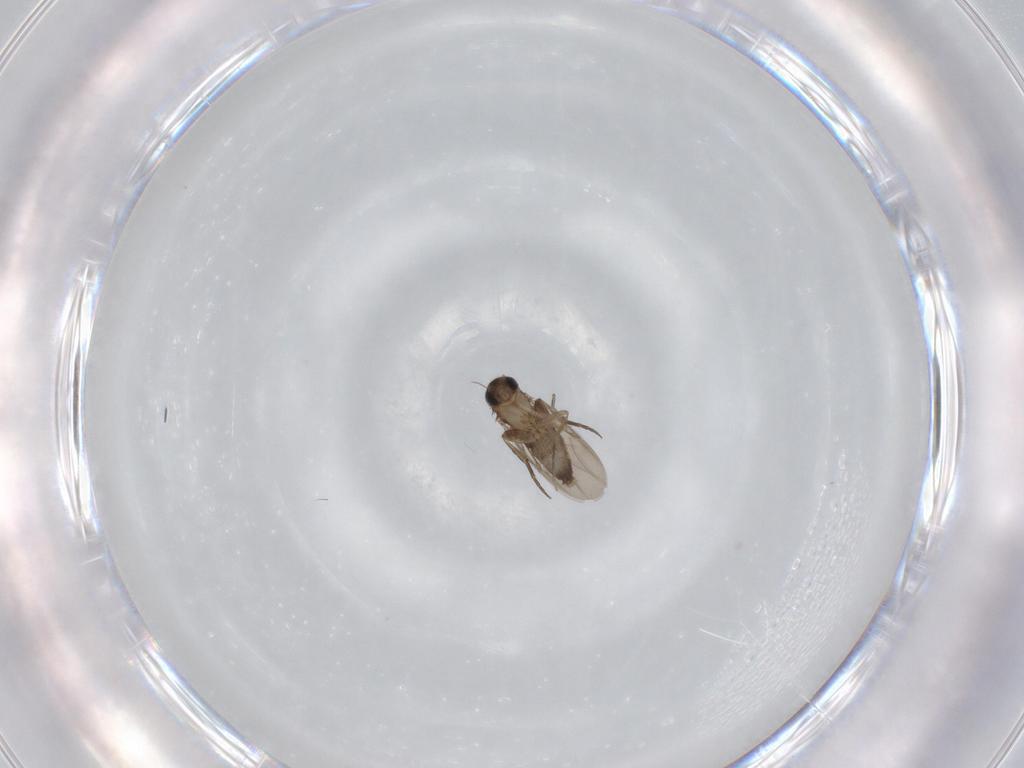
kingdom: Animalia
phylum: Arthropoda
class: Insecta
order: Diptera
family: Phoridae
